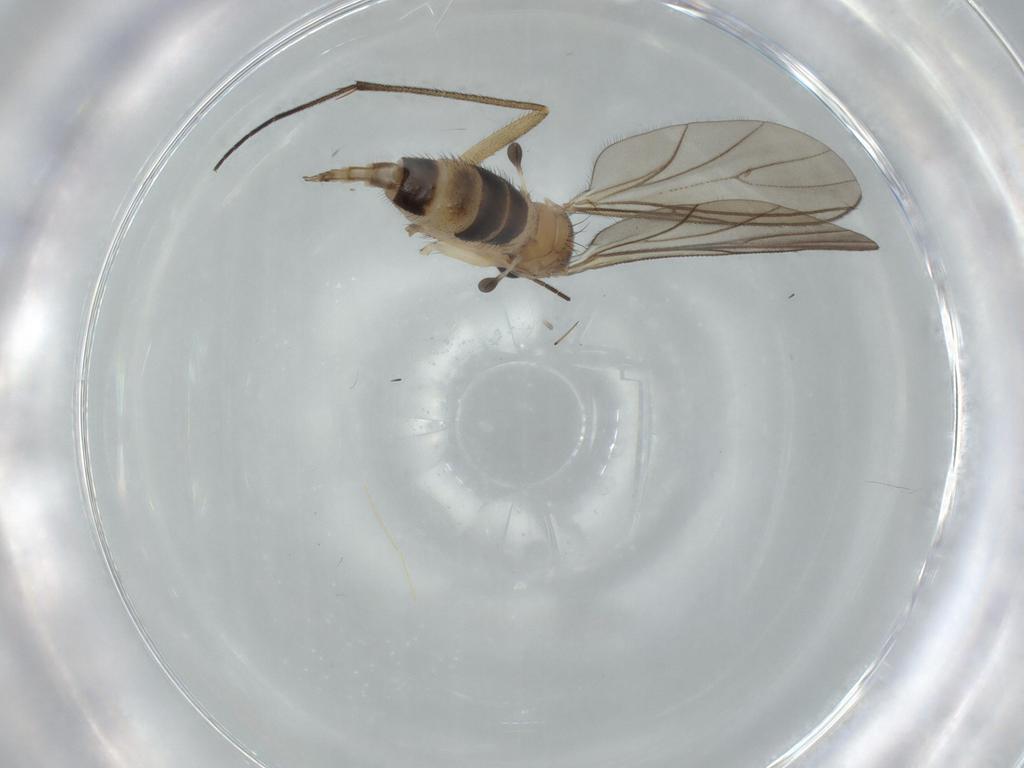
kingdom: Animalia
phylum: Arthropoda
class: Insecta
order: Diptera
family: Sciaridae
